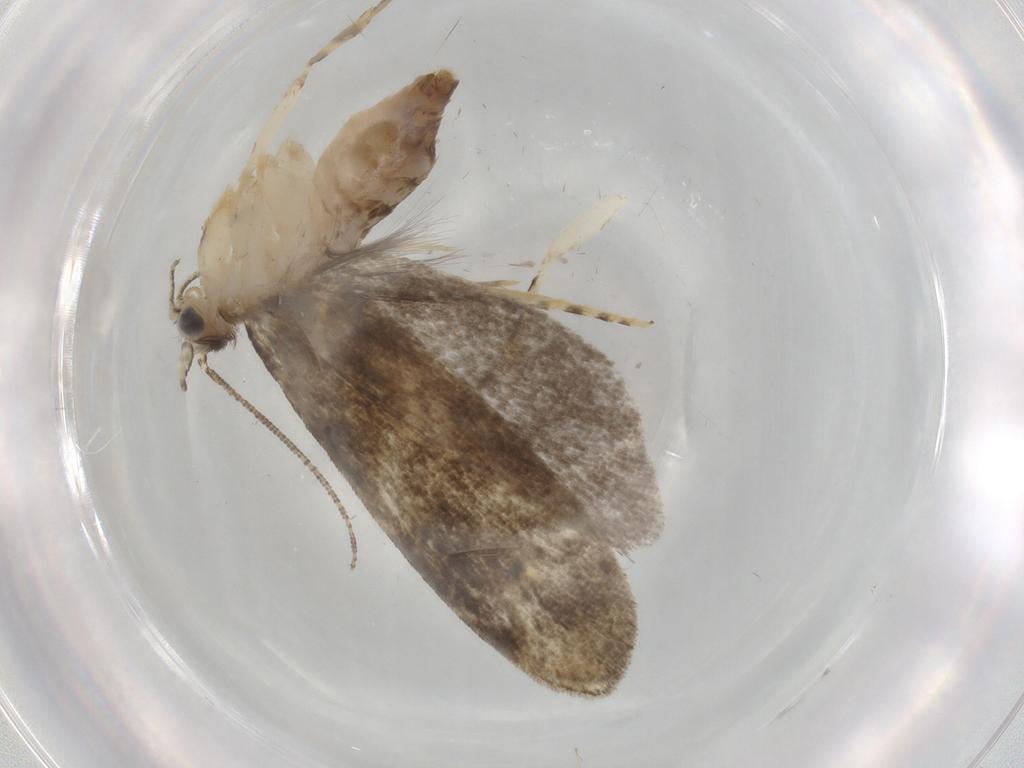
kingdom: Animalia
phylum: Arthropoda
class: Insecta
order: Lepidoptera
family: Tineidae
